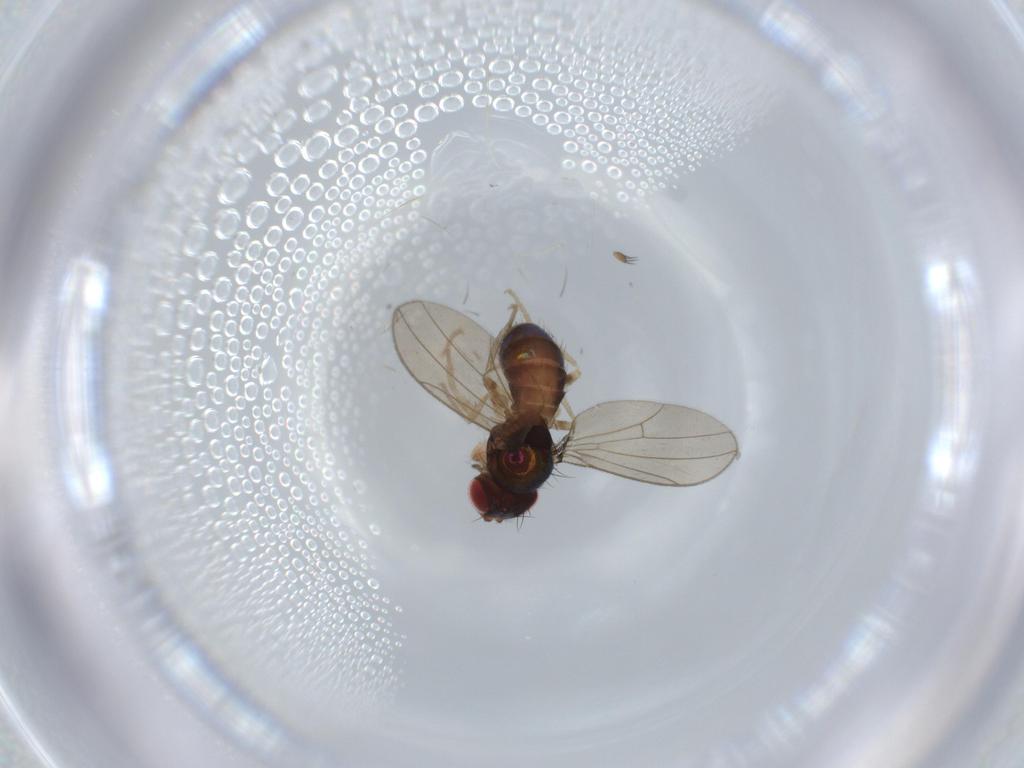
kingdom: Animalia
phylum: Arthropoda
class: Insecta
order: Diptera
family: Drosophilidae
